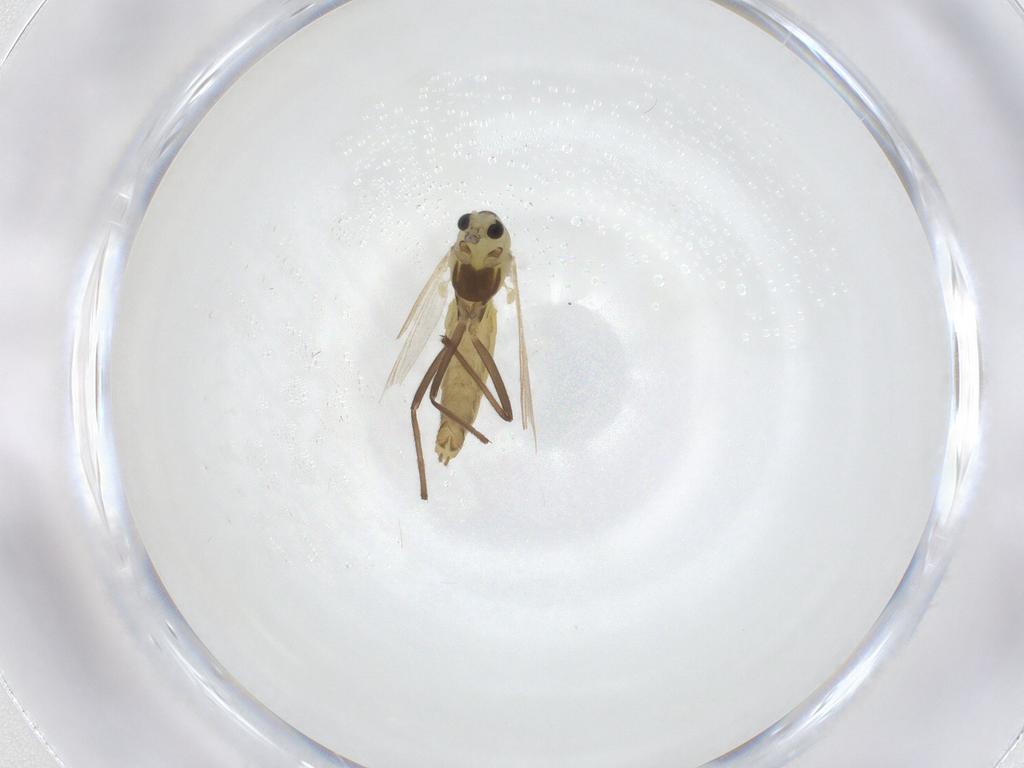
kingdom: Animalia
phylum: Arthropoda
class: Insecta
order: Diptera
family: Chironomidae
